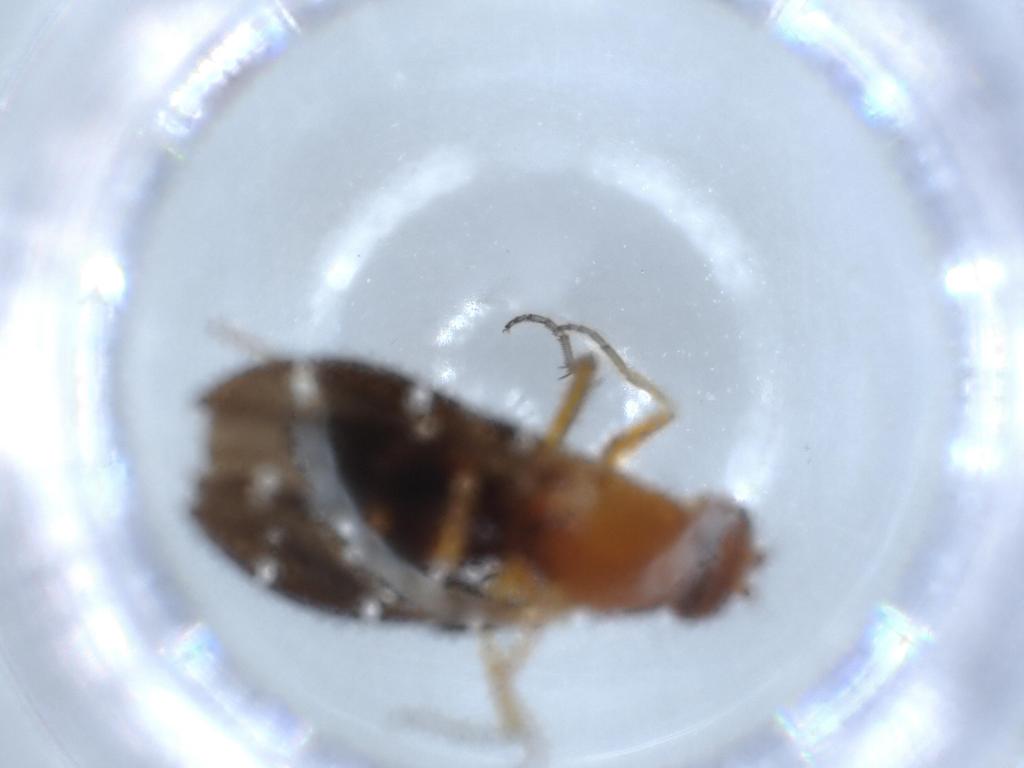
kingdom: Animalia
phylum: Arthropoda
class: Insecta
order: Diptera
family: Ephydridae
